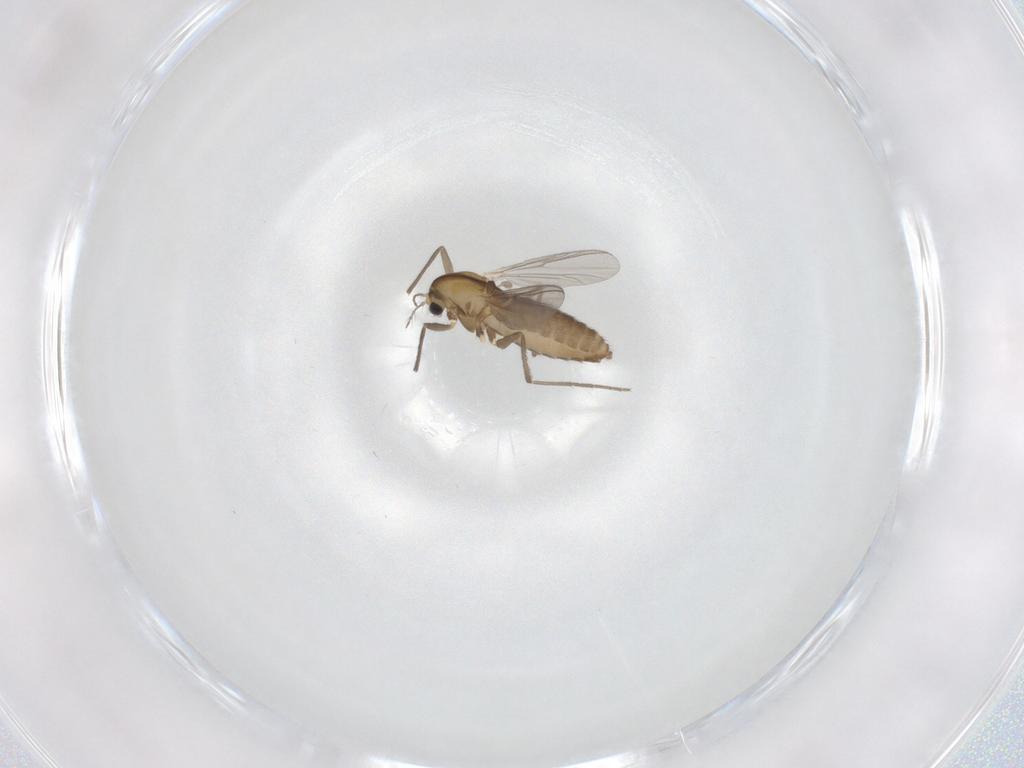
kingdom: Animalia
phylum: Arthropoda
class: Insecta
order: Diptera
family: Chironomidae
